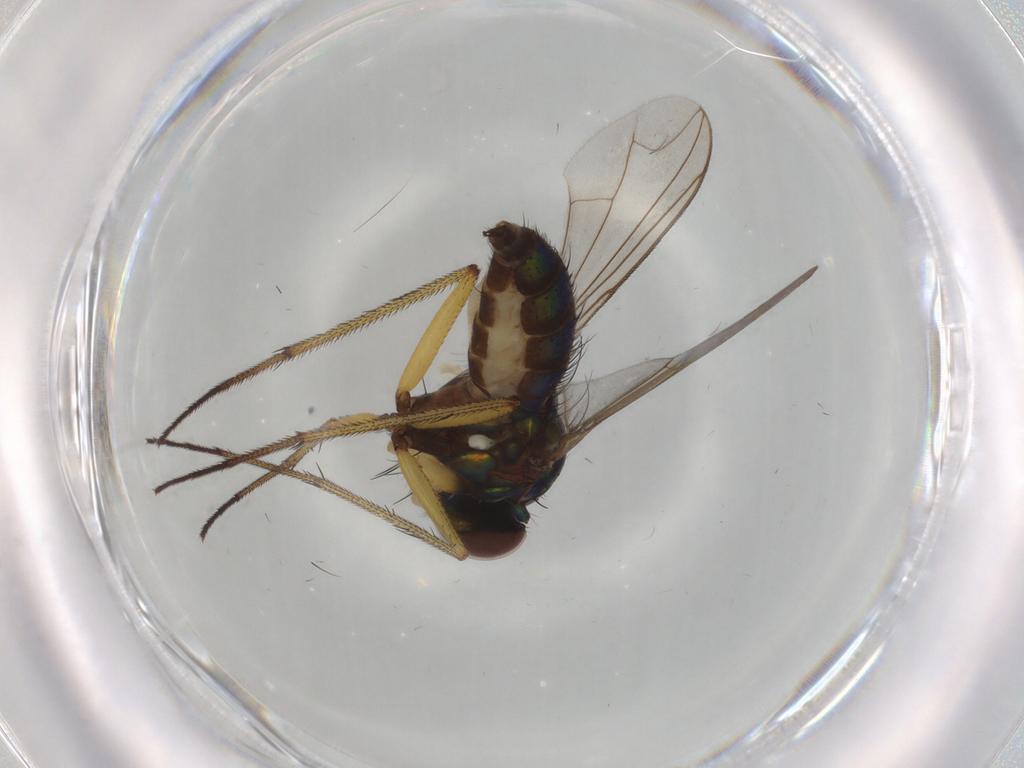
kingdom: Animalia
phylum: Arthropoda
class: Insecta
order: Diptera
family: Dolichopodidae
